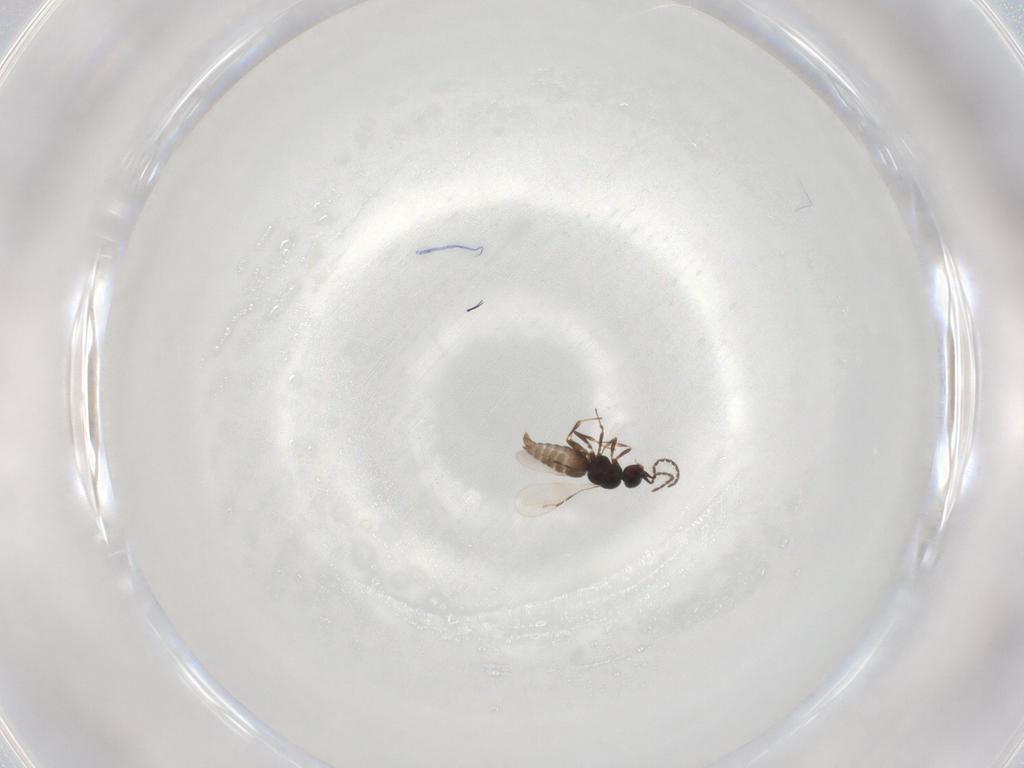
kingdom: Animalia
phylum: Arthropoda
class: Insecta
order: Hymenoptera
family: Ceraphronidae
